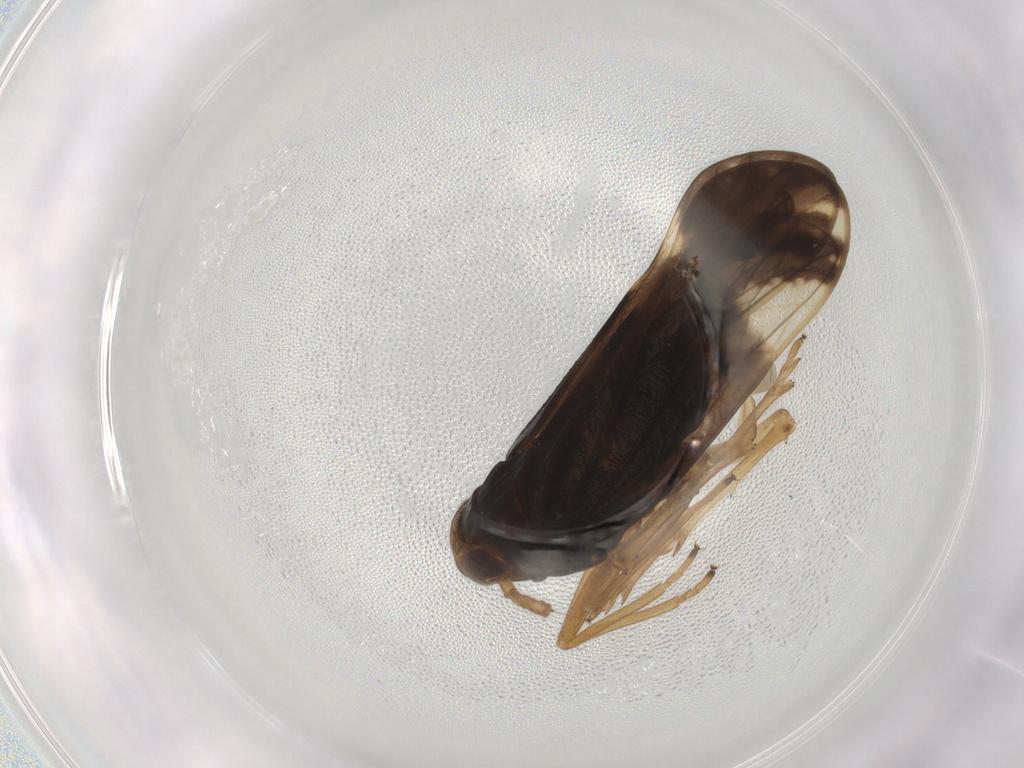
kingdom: Animalia
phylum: Arthropoda
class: Insecta
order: Hemiptera
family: Delphacidae
